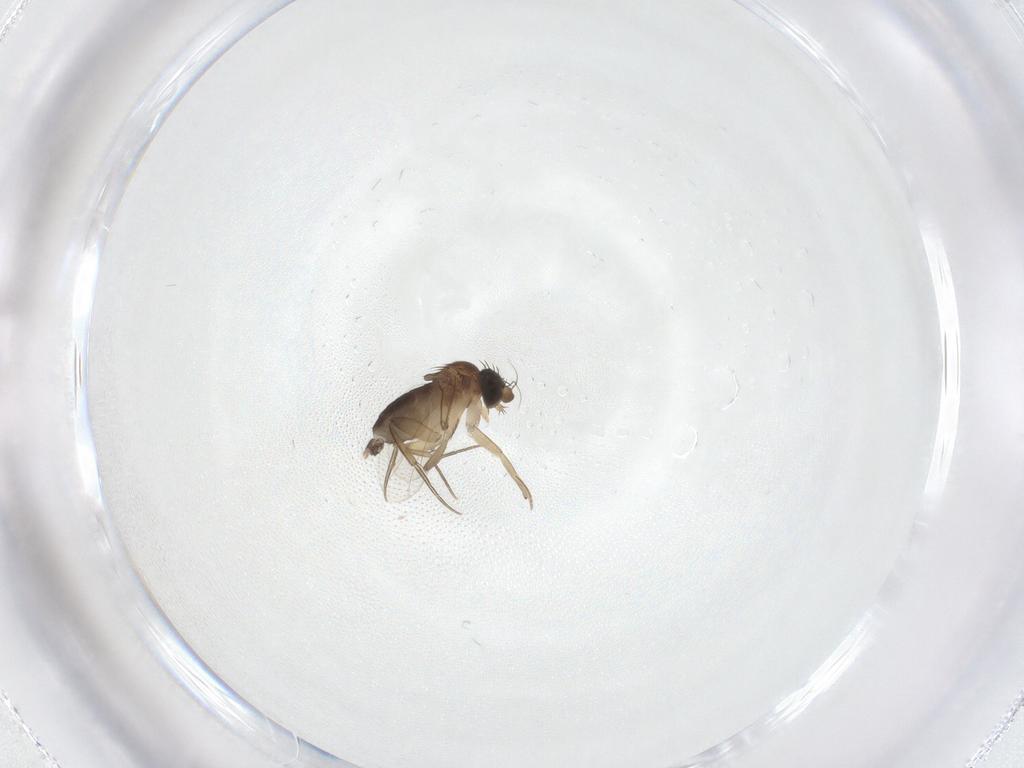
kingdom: Animalia
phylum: Arthropoda
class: Insecta
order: Diptera
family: Phoridae
